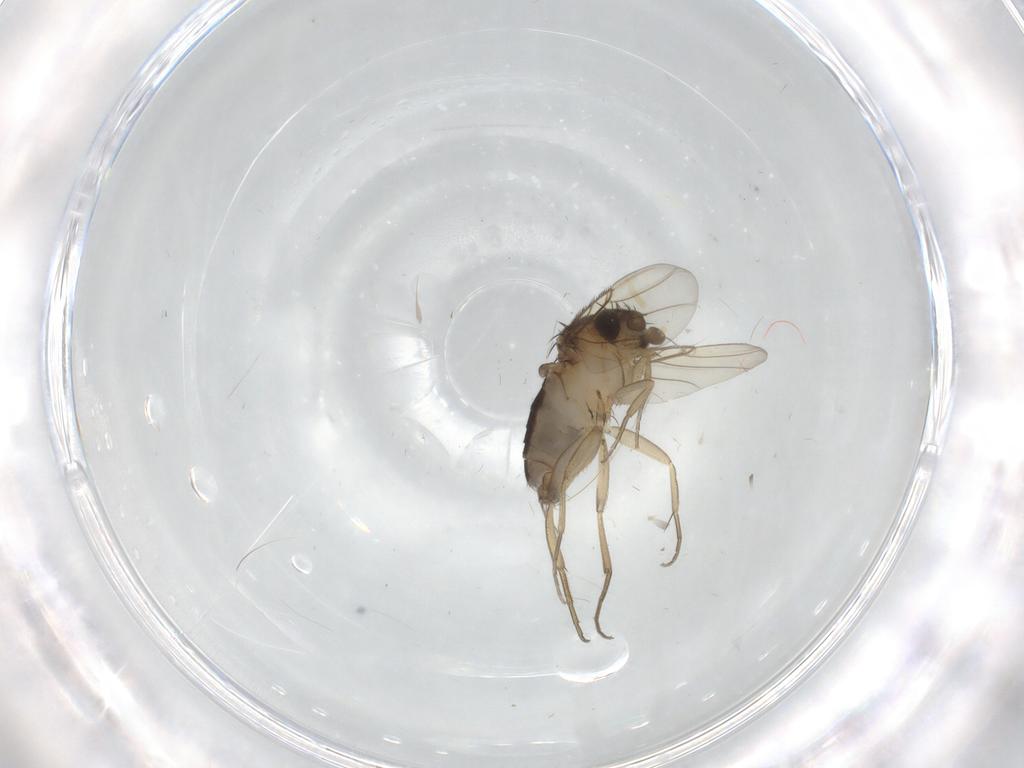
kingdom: Animalia
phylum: Arthropoda
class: Insecta
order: Diptera
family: Phoridae
